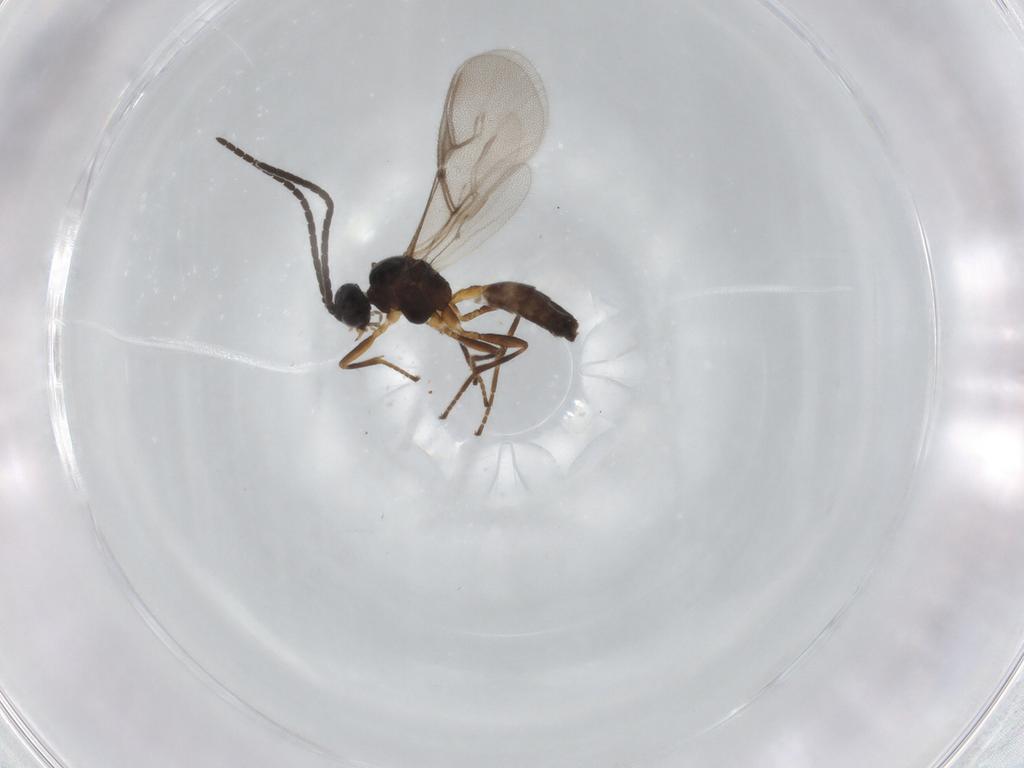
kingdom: Animalia
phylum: Arthropoda
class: Insecta
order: Hymenoptera
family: Braconidae
